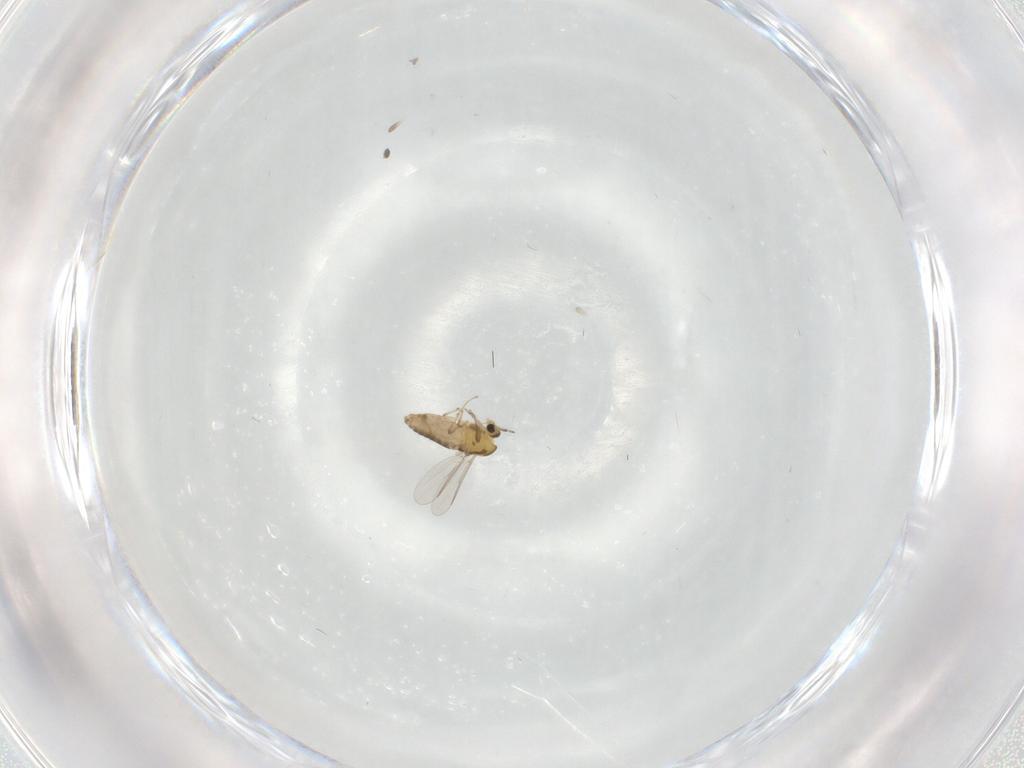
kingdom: Animalia
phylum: Arthropoda
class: Insecta
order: Diptera
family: Chironomidae
